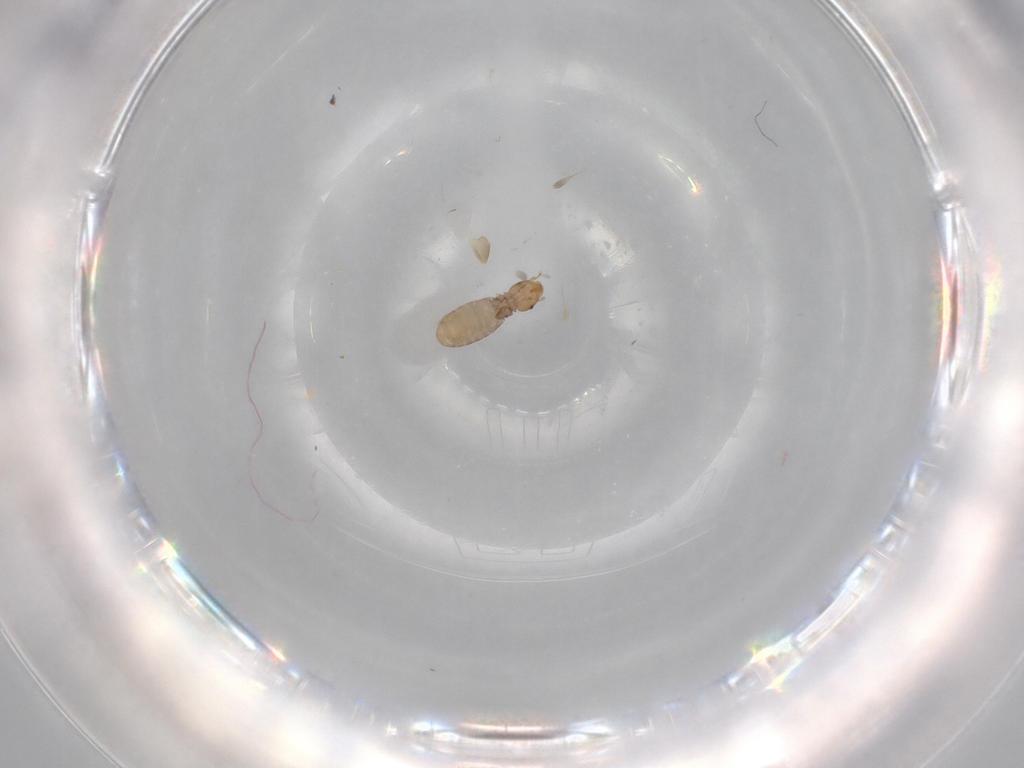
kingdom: Animalia
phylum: Arthropoda
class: Insecta
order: Psocodea
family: Liposcelididae
